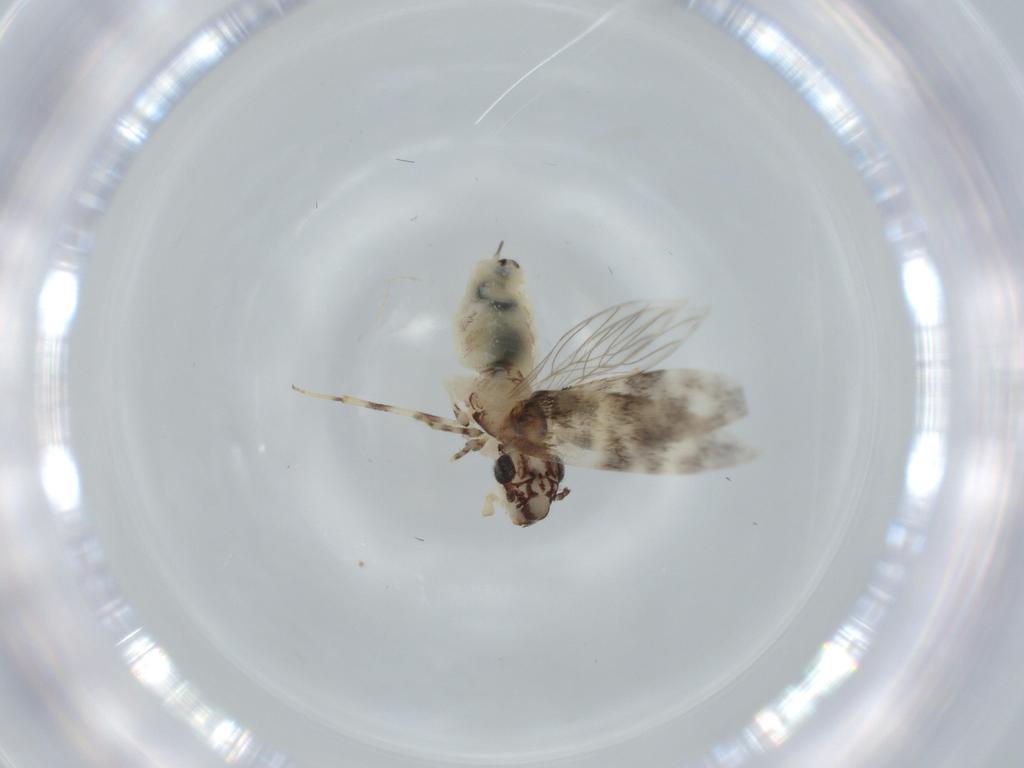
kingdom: Animalia
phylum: Arthropoda
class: Insecta
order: Psocodea
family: Lepidopsocidae
